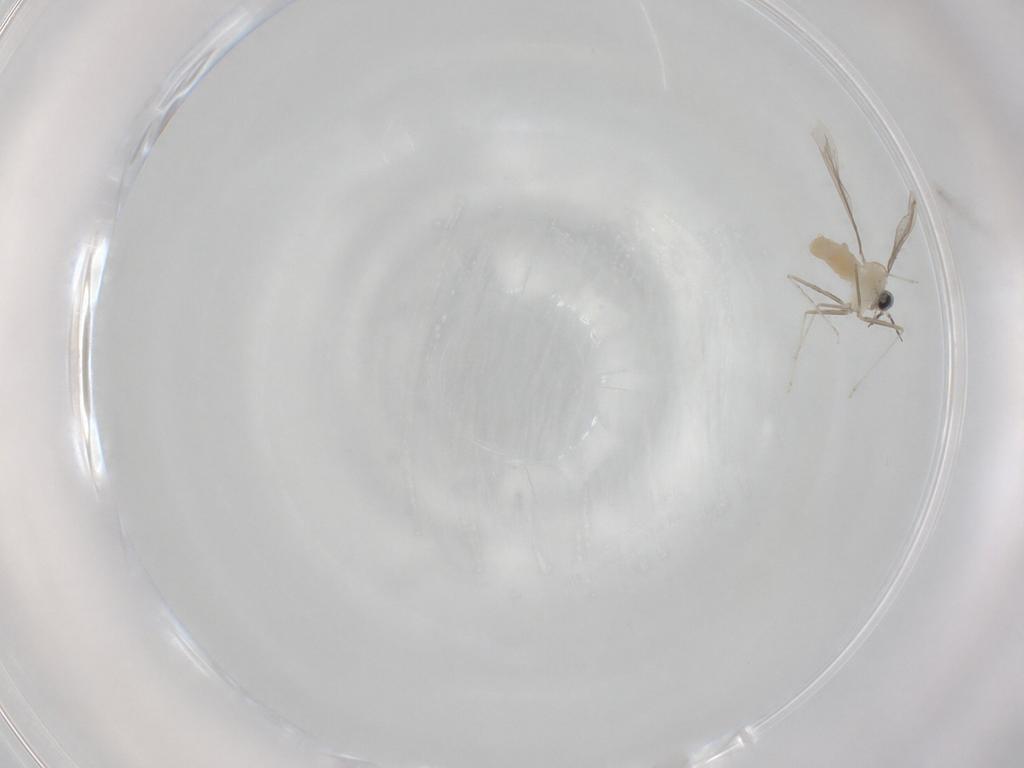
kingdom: Animalia
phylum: Arthropoda
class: Insecta
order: Diptera
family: Cecidomyiidae
